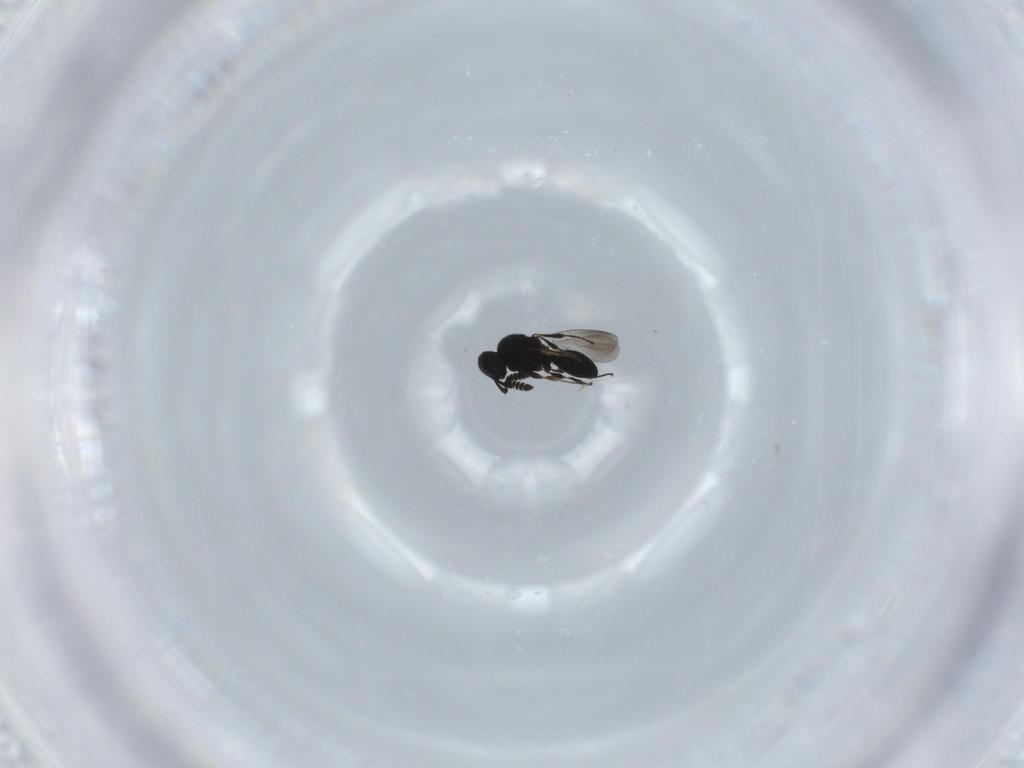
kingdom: Animalia
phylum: Arthropoda
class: Insecta
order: Hymenoptera
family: Platygastridae
